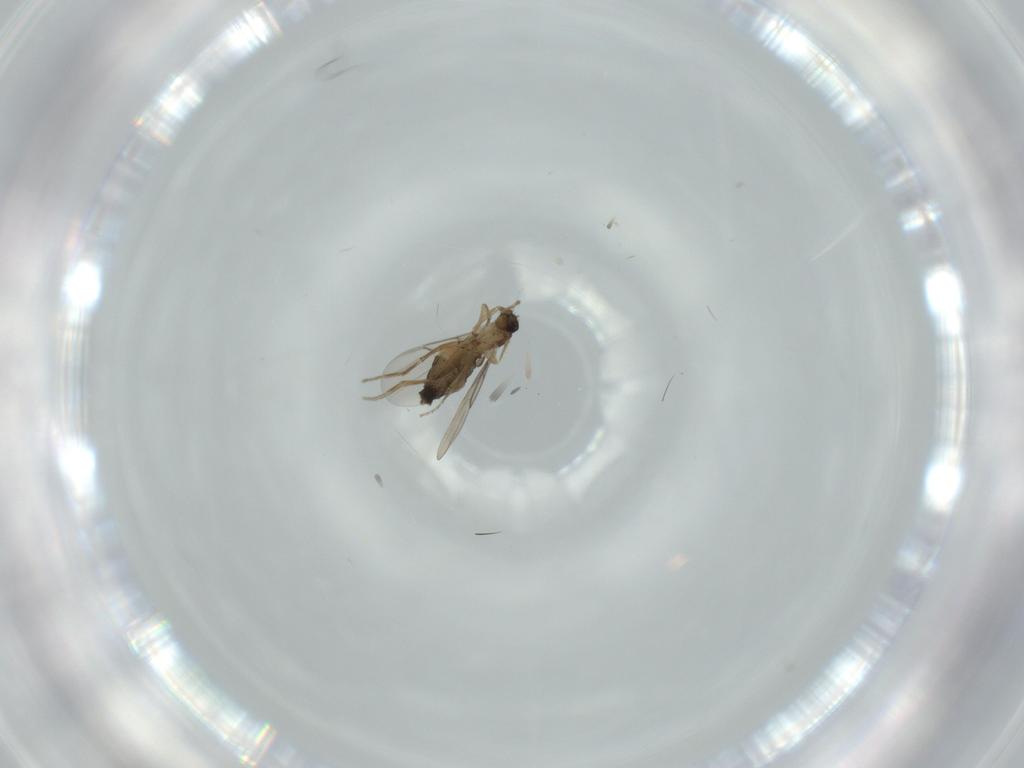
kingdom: Animalia
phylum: Arthropoda
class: Insecta
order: Diptera
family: Phoridae
